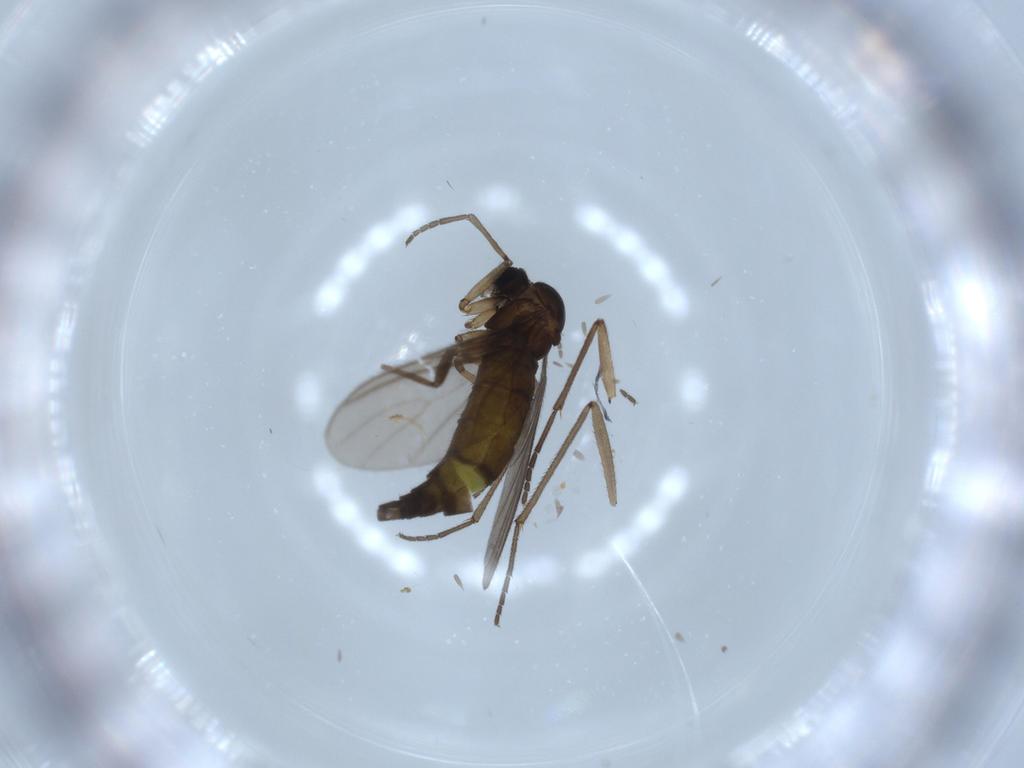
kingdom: Animalia
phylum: Arthropoda
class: Insecta
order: Diptera
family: Sciaridae
